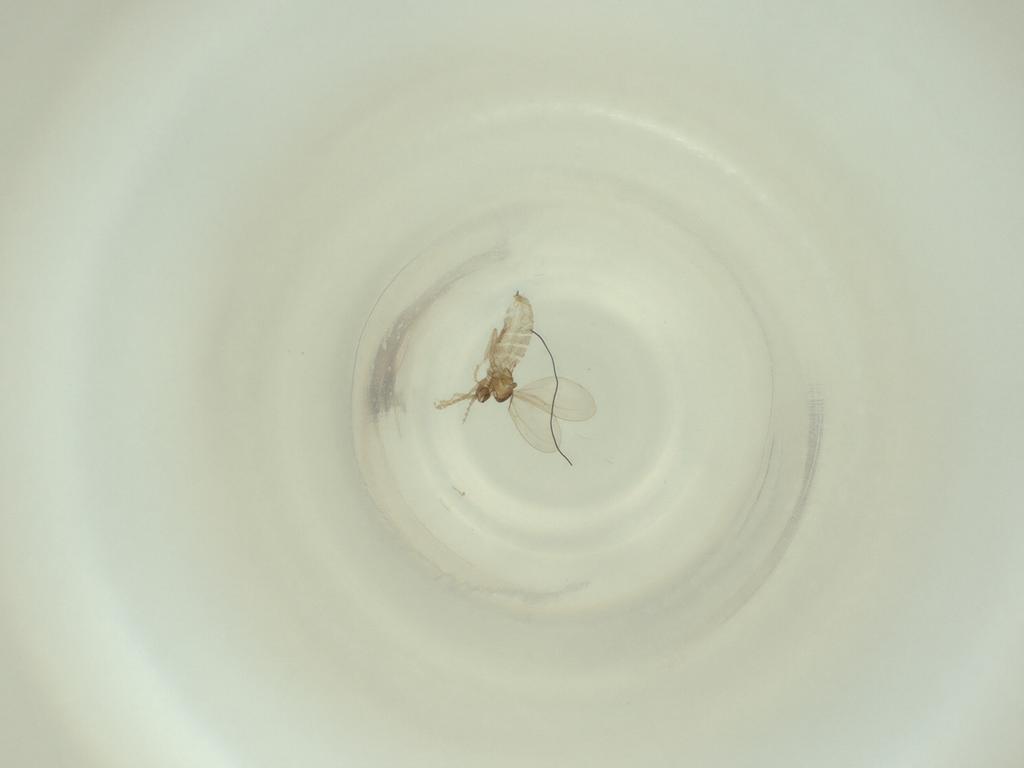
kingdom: Animalia
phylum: Arthropoda
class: Insecta
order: Diptera
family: Cecidomyiidae
